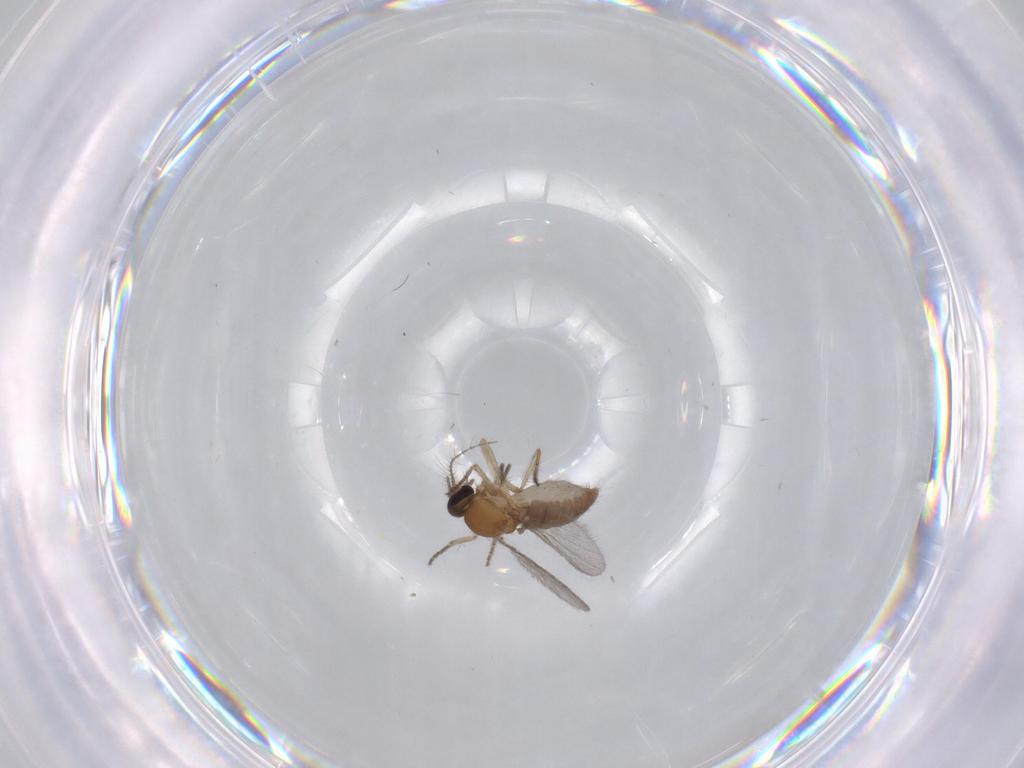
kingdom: Animalia
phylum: Arthropoda
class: Insecta
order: Diptera
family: Ceratopogonidae
